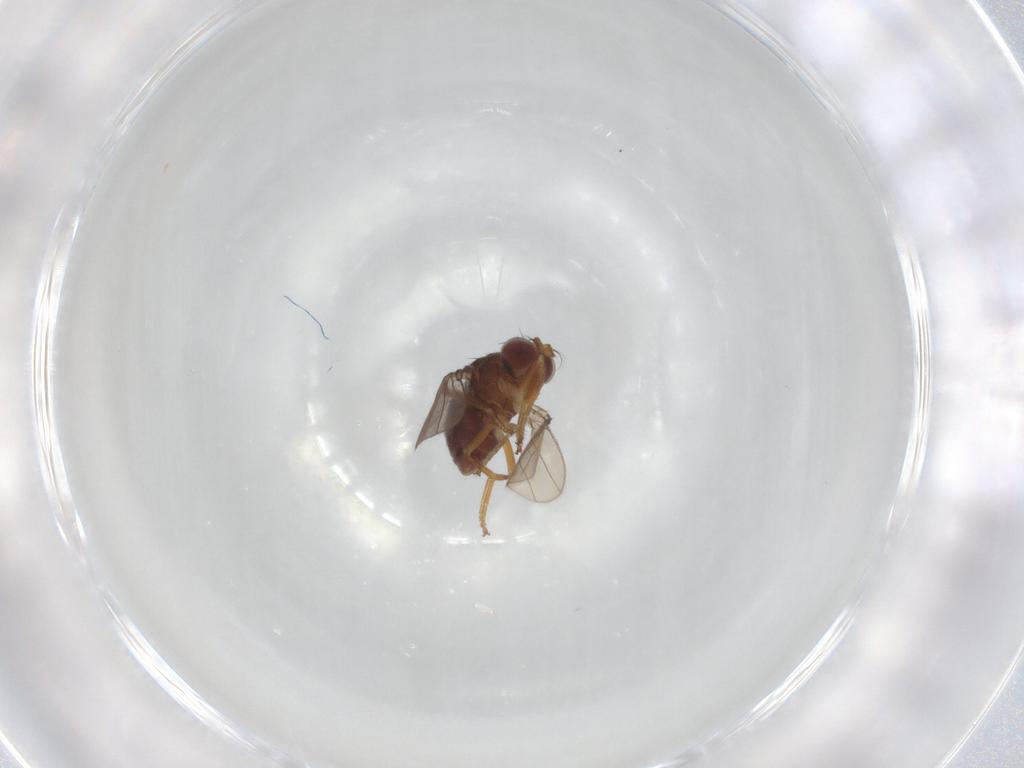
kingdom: Animalia
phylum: Arthropoda
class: Insecta
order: Diptera
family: Ephydridae
